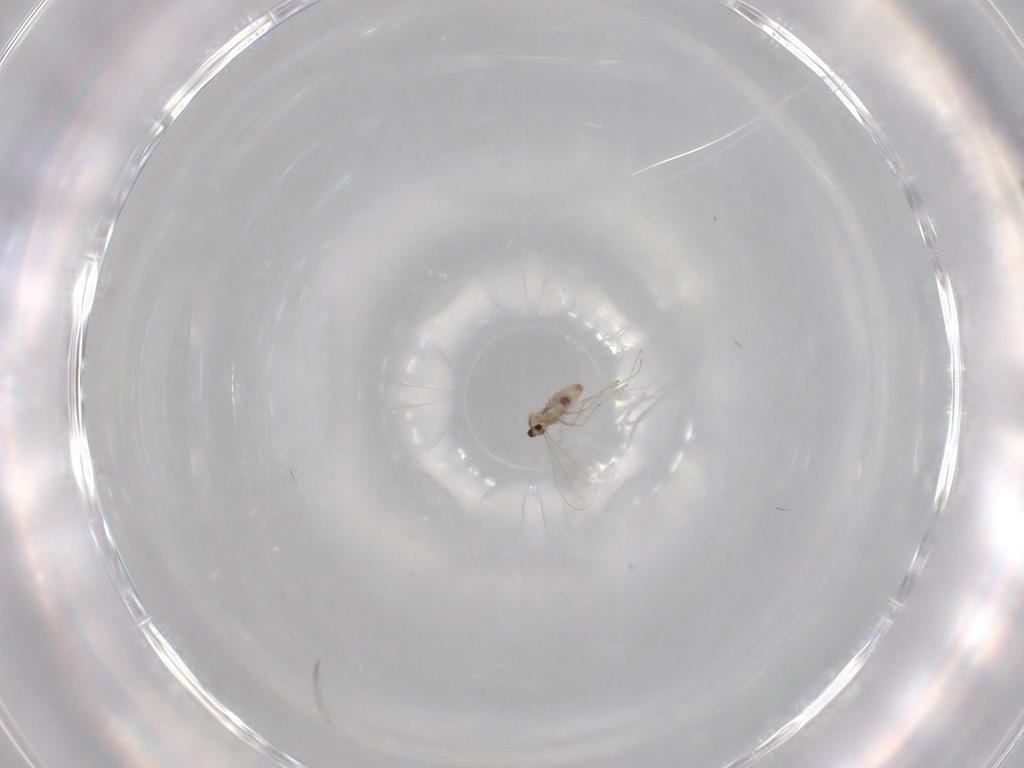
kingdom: Animalia
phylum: Arthropoda
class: Insecta
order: Diptera
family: Cecidomyiidae
